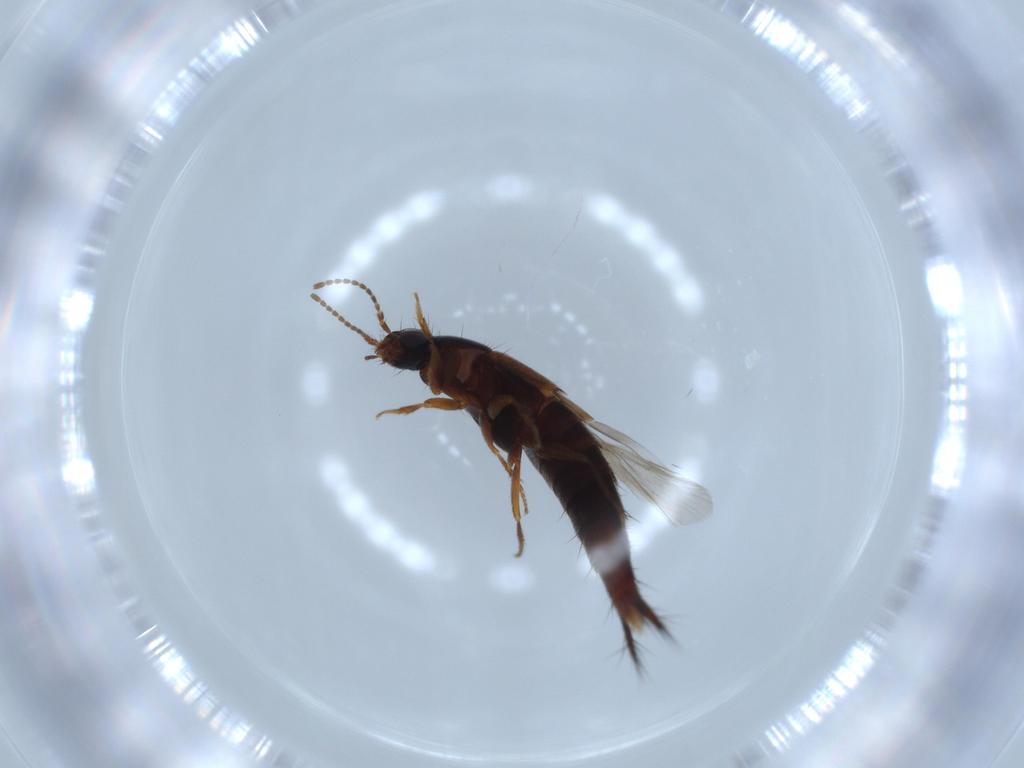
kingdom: Animalia
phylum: Arthropoda
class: Insecta
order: Coleoptera
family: Staphylinidae
